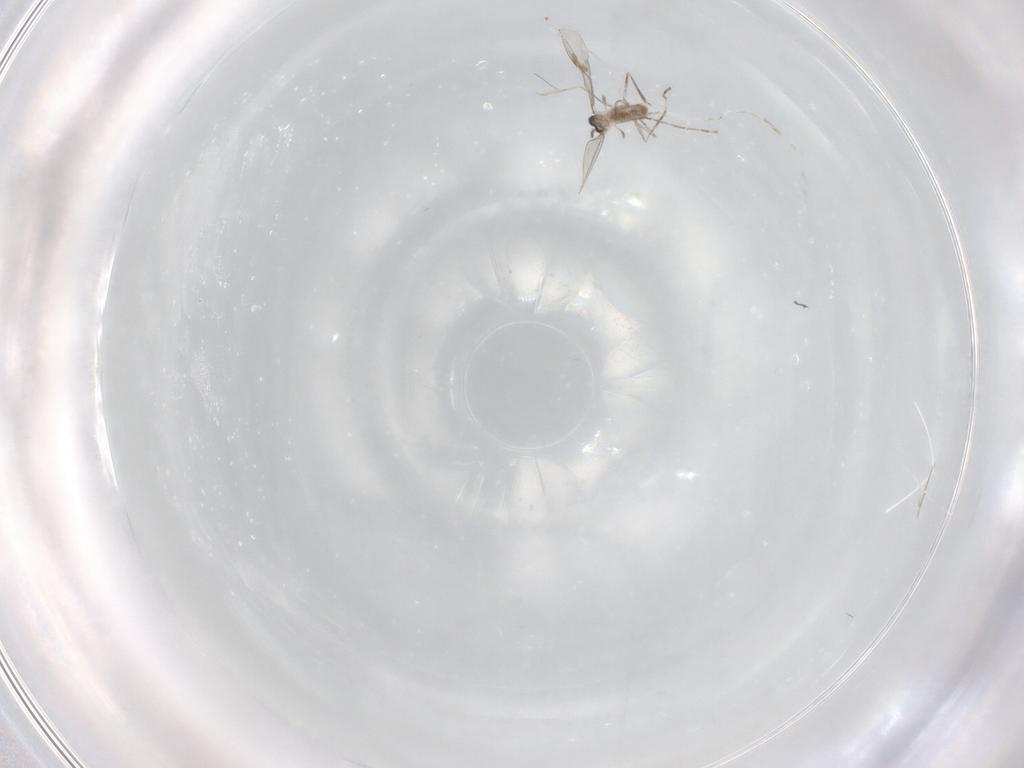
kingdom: Animalia
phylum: Arthropoda
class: Insecta
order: Diptera
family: Cecidomyiidae
